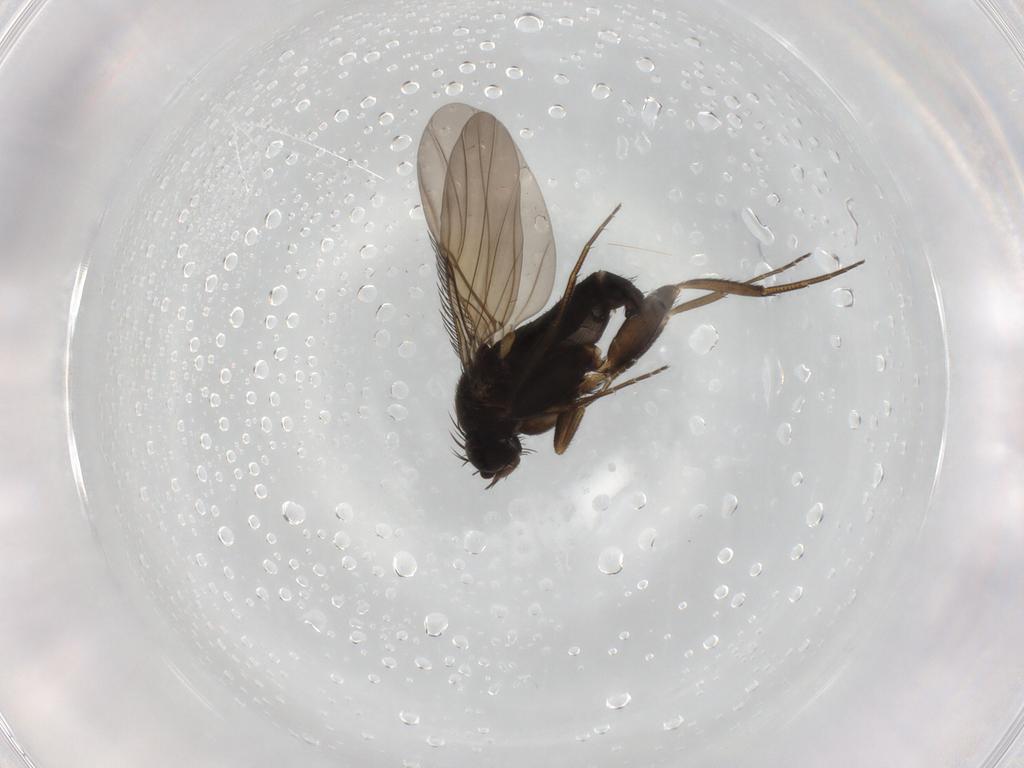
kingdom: Animalia
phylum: Arthropoda
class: Insecta
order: Diptera
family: Phoridae
